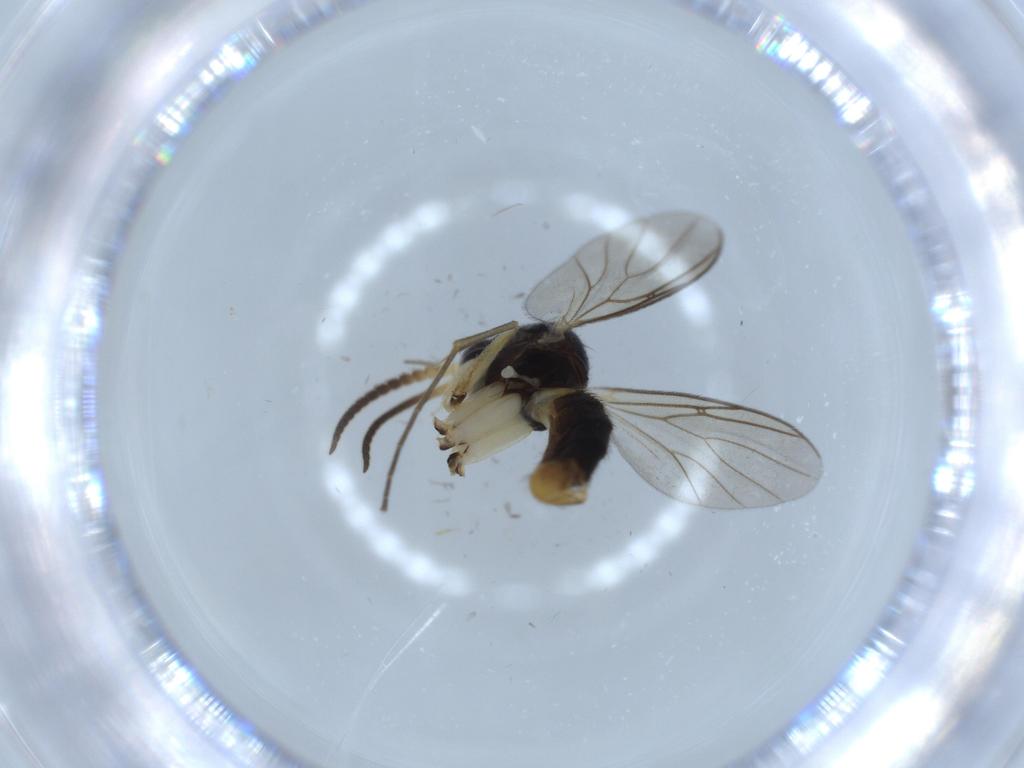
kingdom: Animalia
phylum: Arthropoda
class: Insecta
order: Diptera
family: Mycetophilidae
